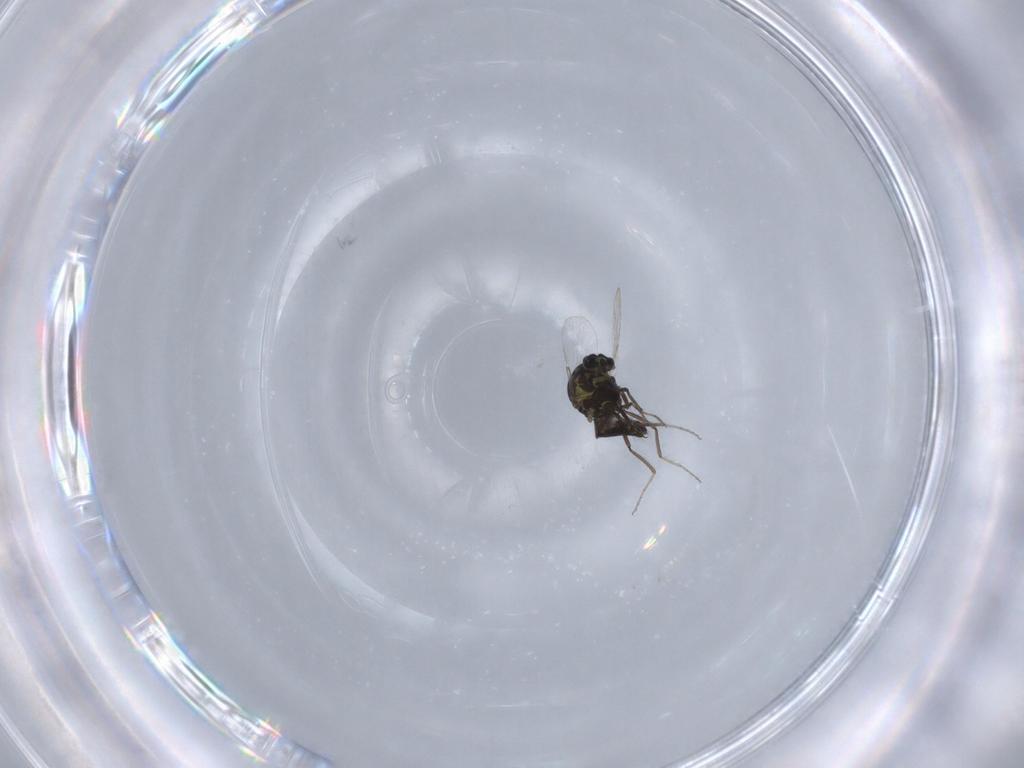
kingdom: Animalia
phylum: Arthropoda
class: Insecta
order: Diptera
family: Ceratopogonidae
